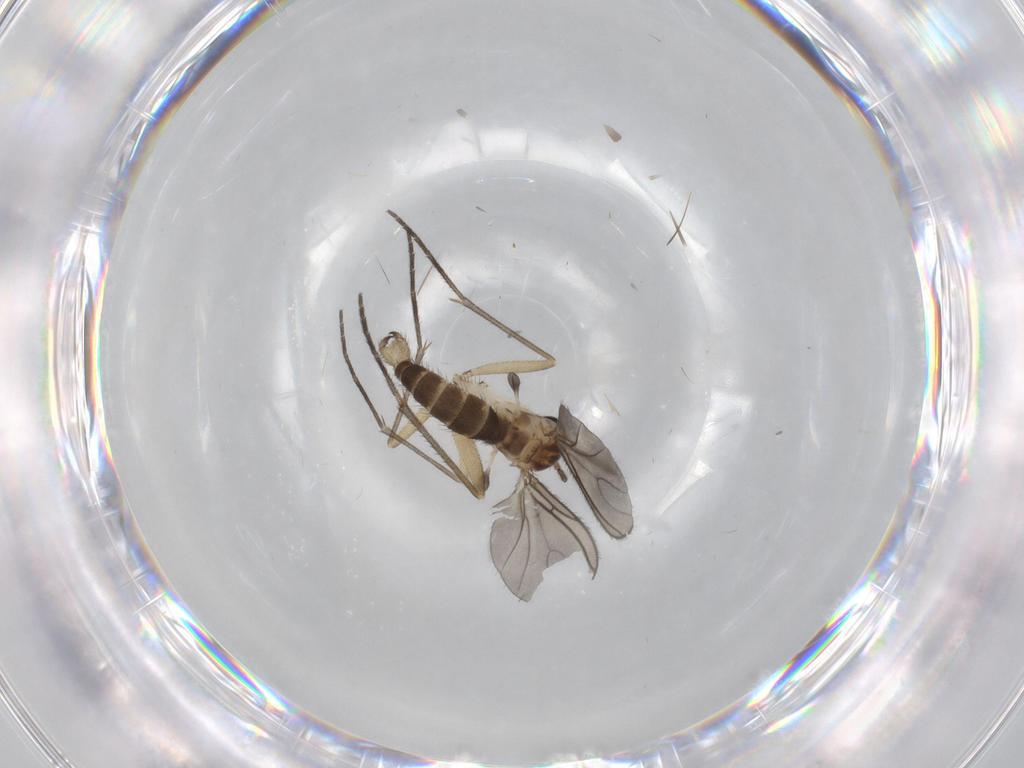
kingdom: Animalia
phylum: Arthropoda
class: Insecta
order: Diptera
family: Sciaridae
